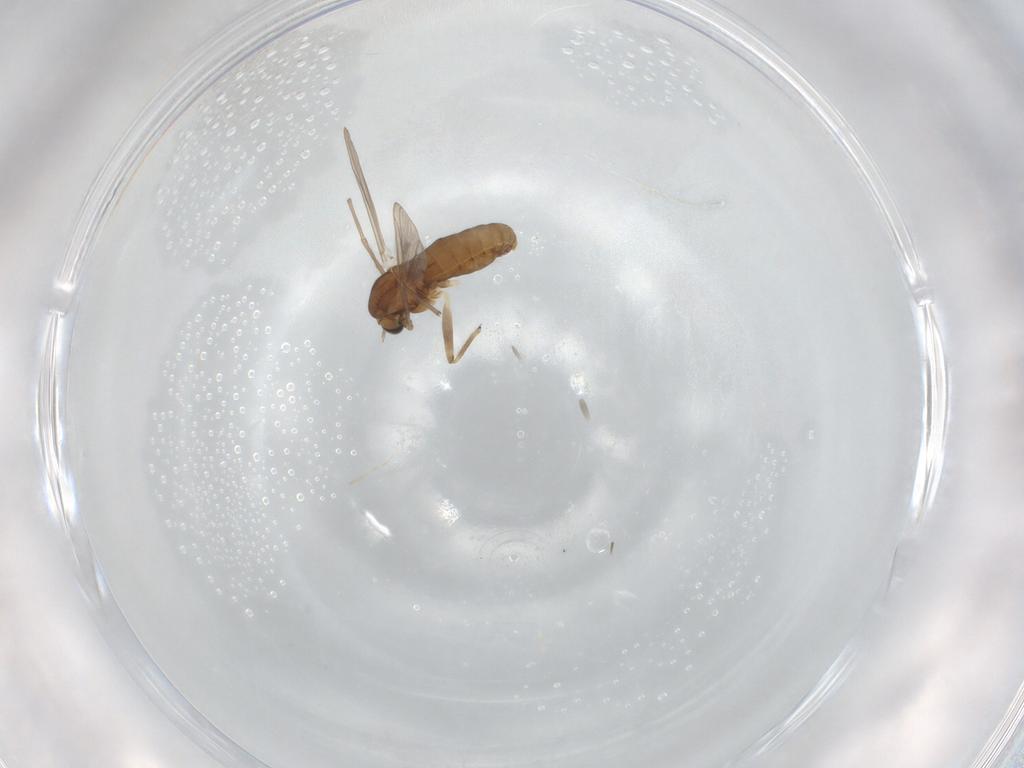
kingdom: Animalia
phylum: Arthropoda
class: Insecta
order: Diptera
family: Chironomidae
